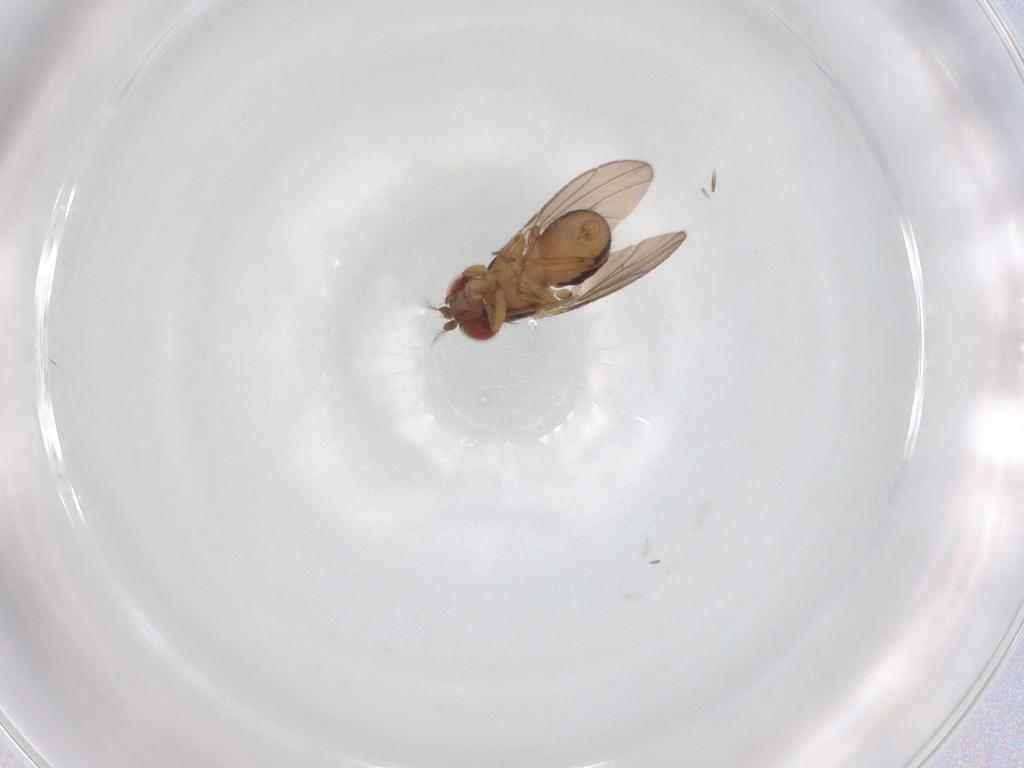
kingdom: Animalia
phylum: Arthropoda
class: Insecta
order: Diptera
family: Drosophilidae
